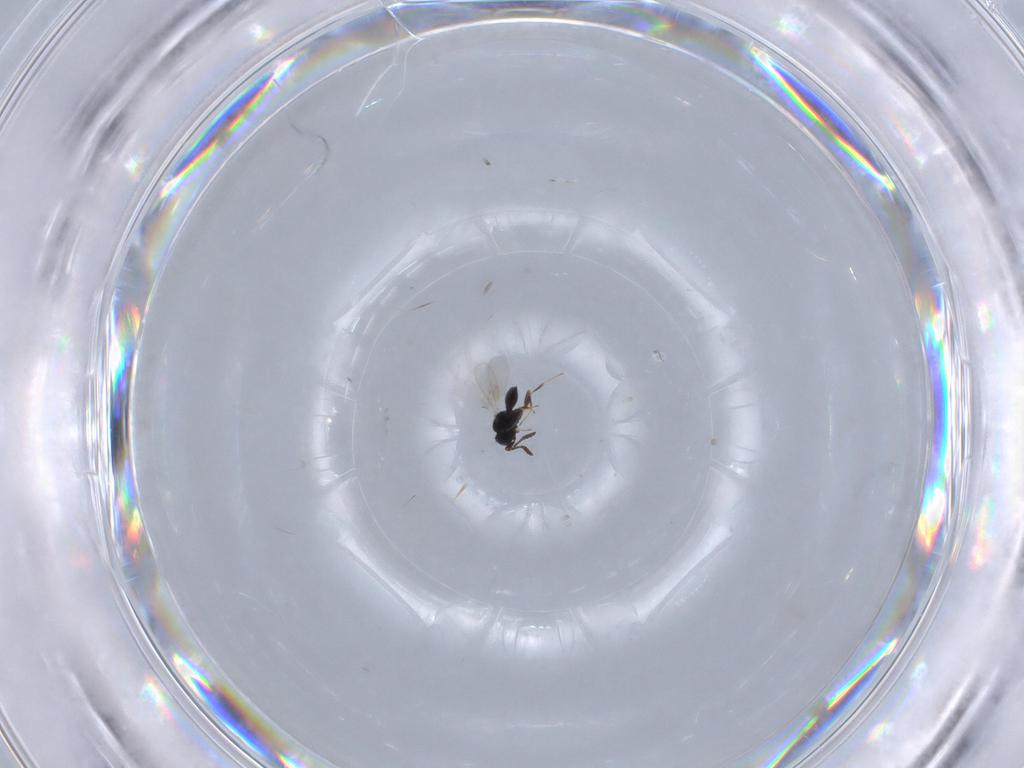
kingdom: Animalia
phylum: Arthropoda
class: Insecta
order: Hymenoptera
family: Scelionidae
